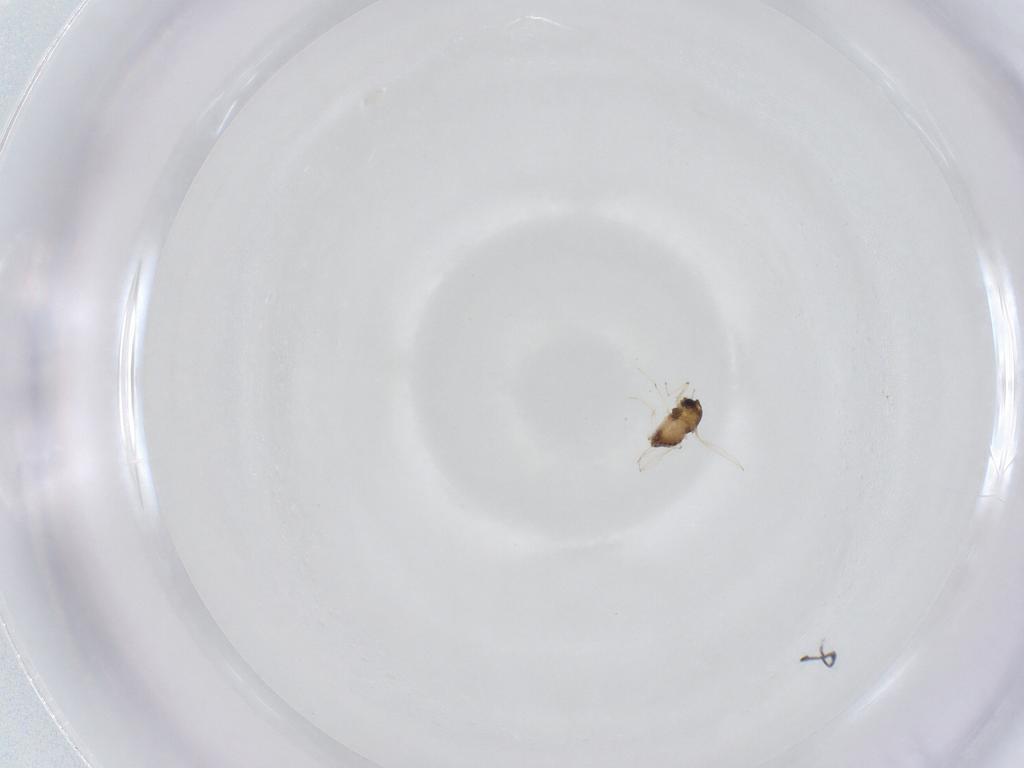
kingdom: Animalia
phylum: Arthropoda
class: Insecta
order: Diptera
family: Chironomidae
